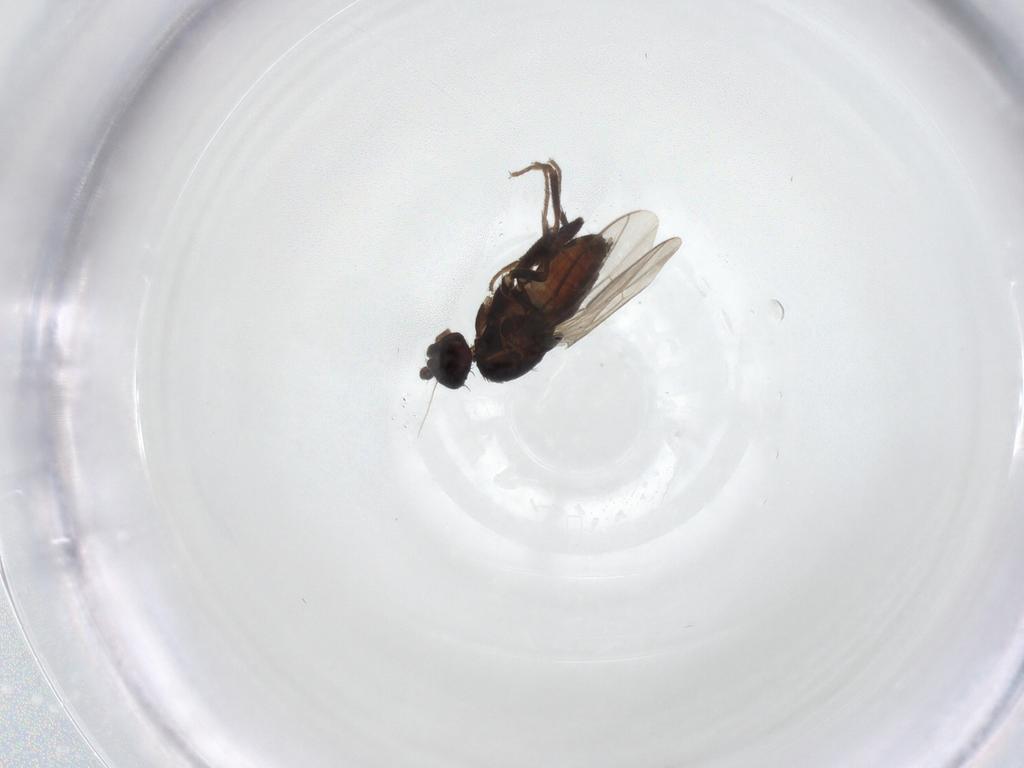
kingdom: Animalia
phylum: Arthropoda
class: Insecta
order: Diptera
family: Sphaeroceridae
